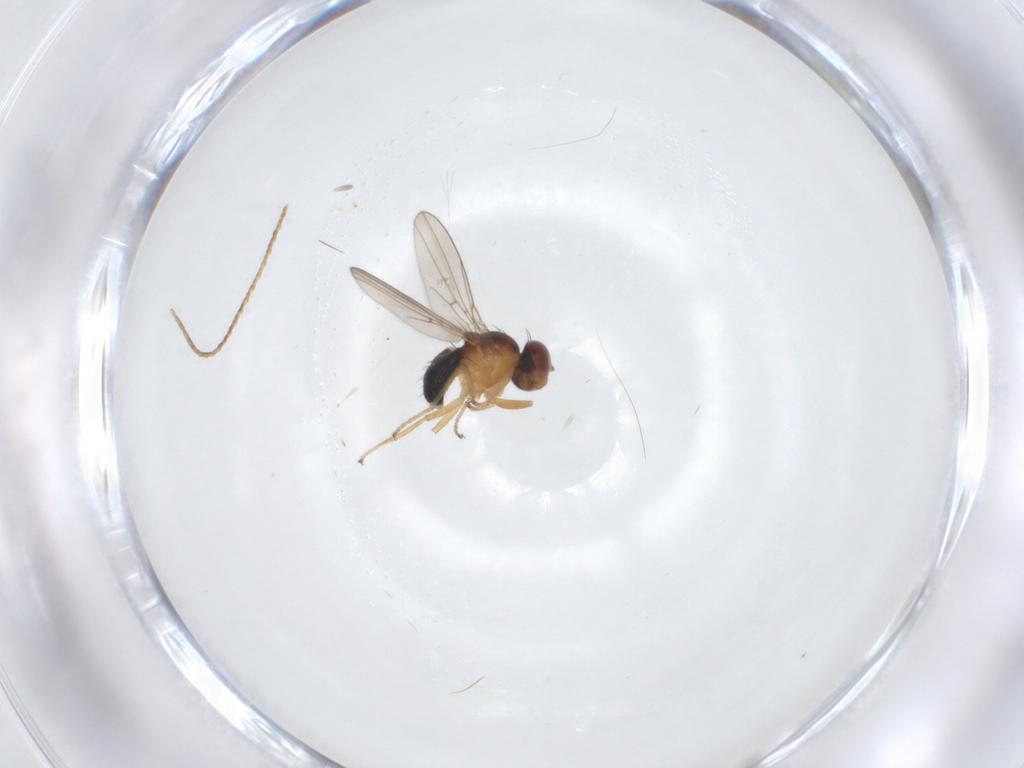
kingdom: Animalia
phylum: Arthropoda
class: Insecta
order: Diptera
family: Ephydridae
